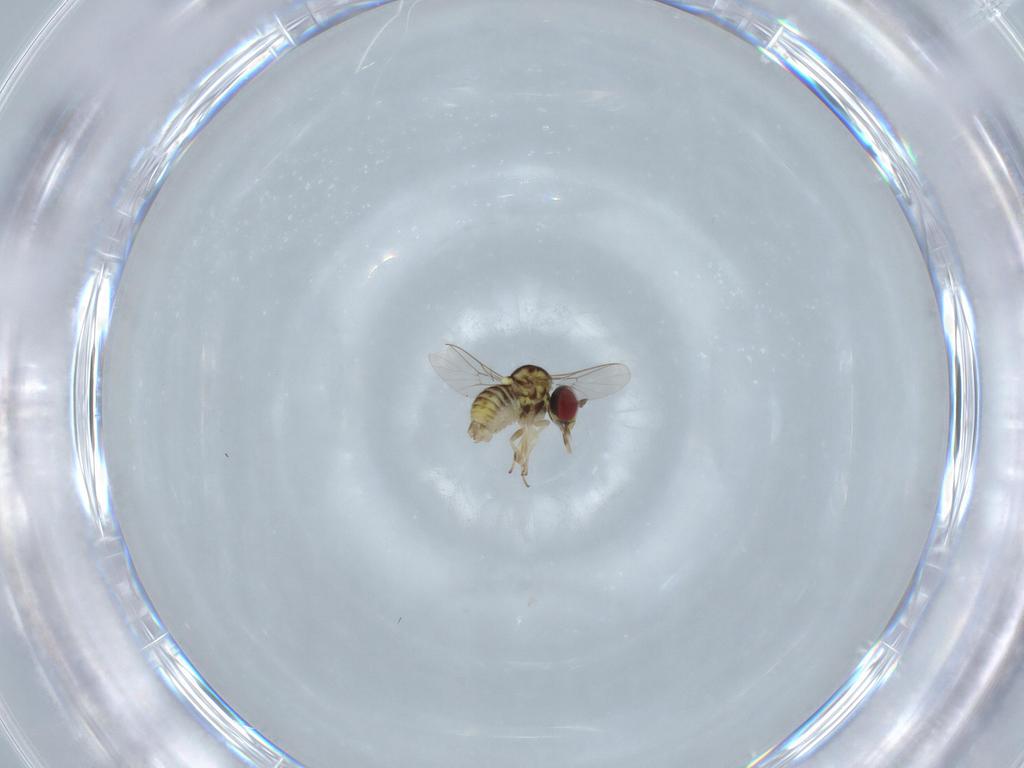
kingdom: Animalia
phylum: Arthropoda
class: Insecta
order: Diptera
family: Bombyliidae
